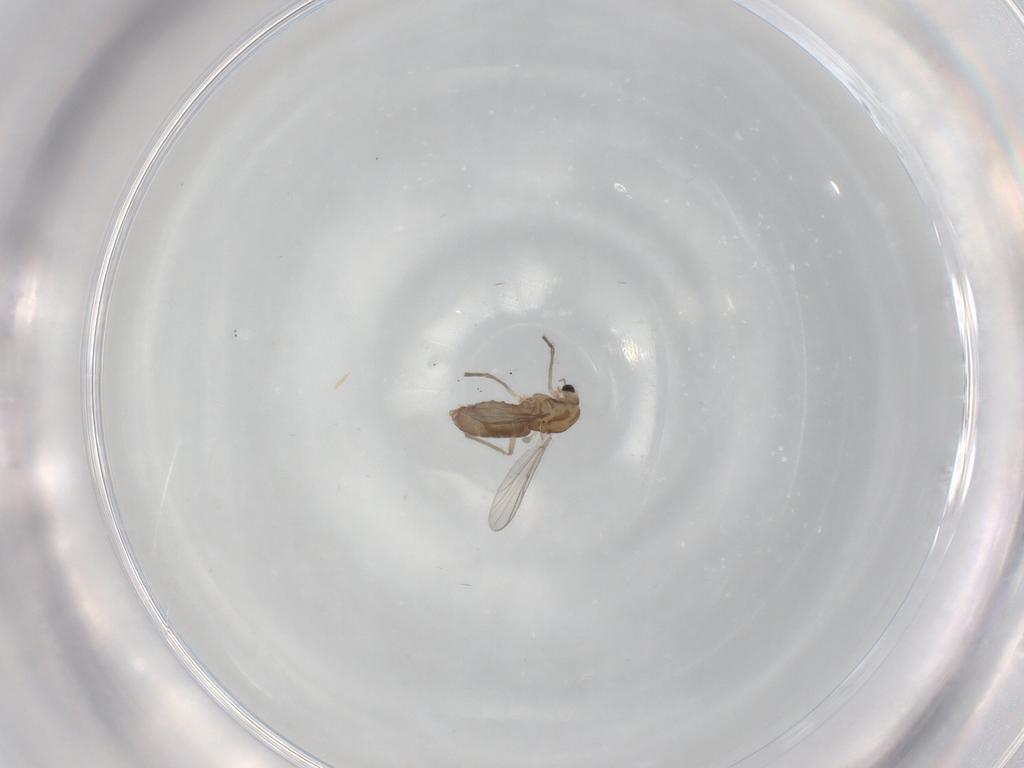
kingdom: Animalia
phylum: Arthropoda
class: Insecta
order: Diptera
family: Chironomidae
